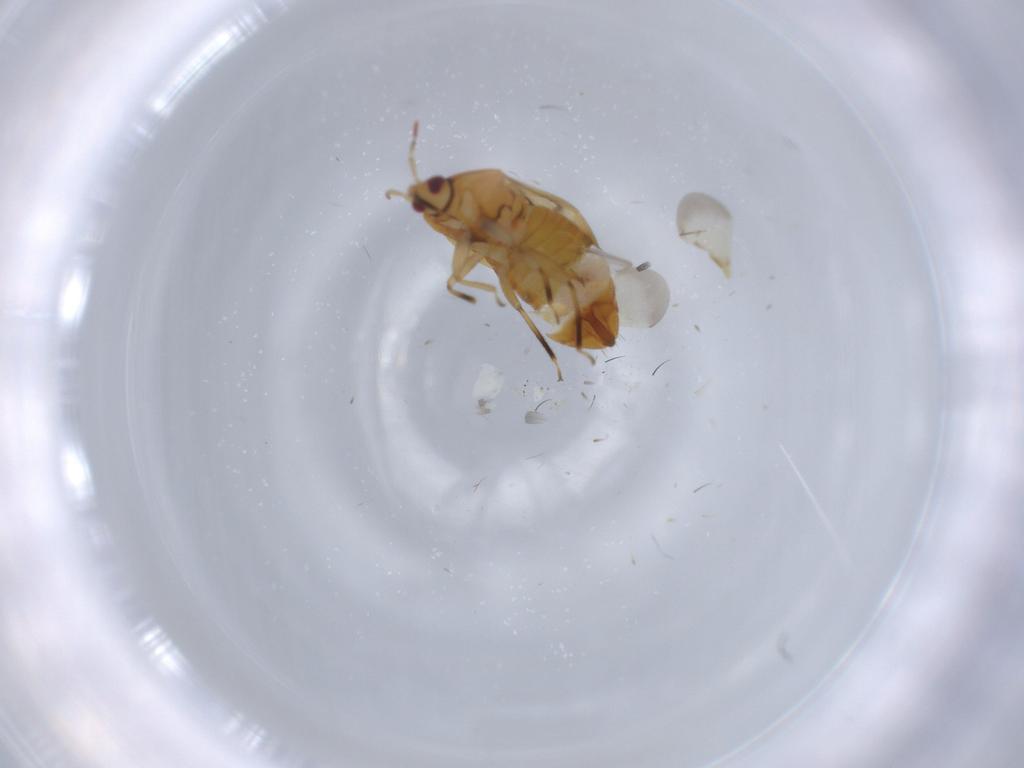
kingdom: Animalia
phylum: Arthropoda
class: Insecta
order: Hemiptera
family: Anthocoridae
